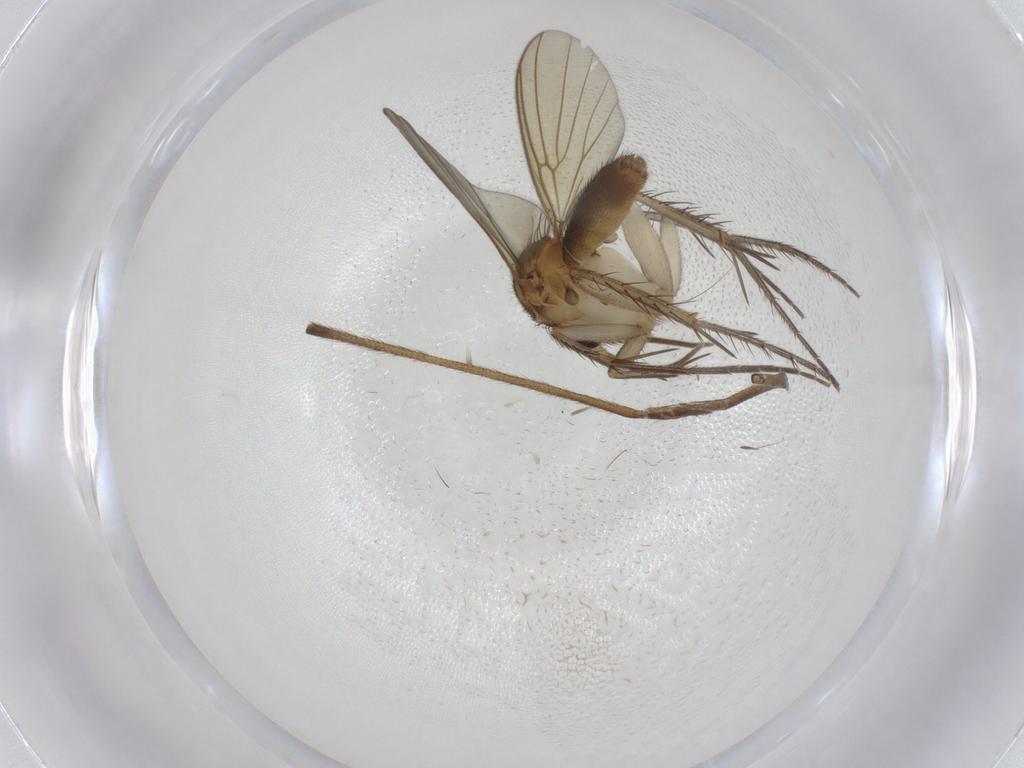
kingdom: Animalia
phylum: Arthropoda
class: Insecta
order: Diptera
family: Limoniidae
